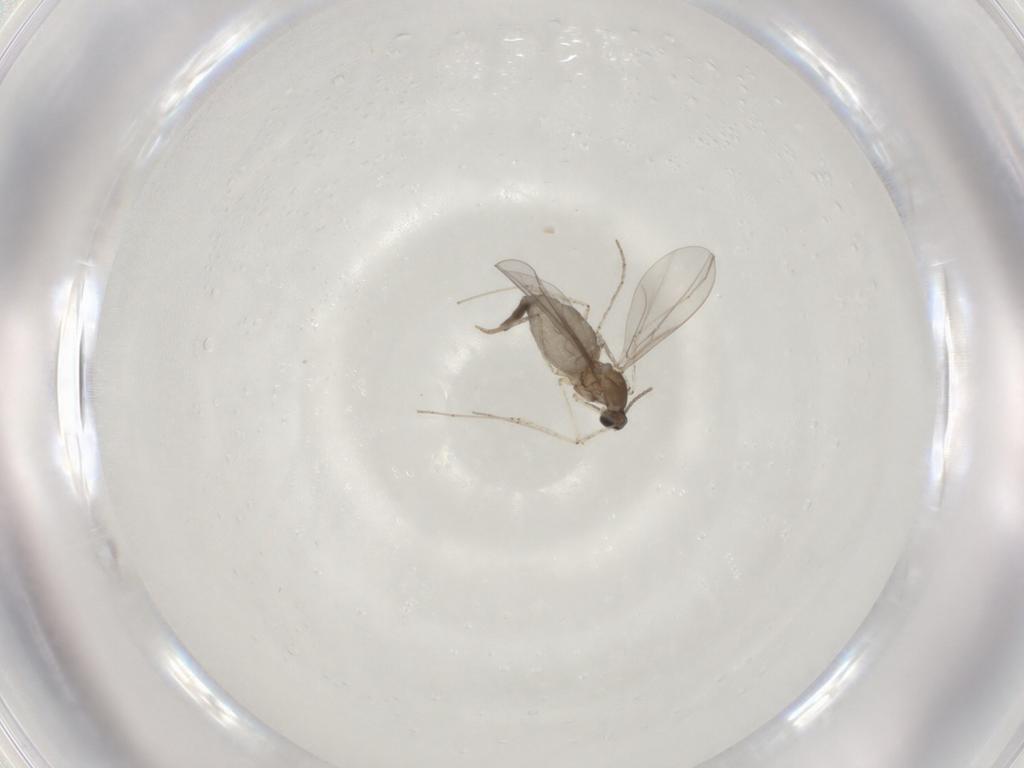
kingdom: Animalia
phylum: Arthropoda
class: Insecta
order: Diptera
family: Cecidomyiidae
